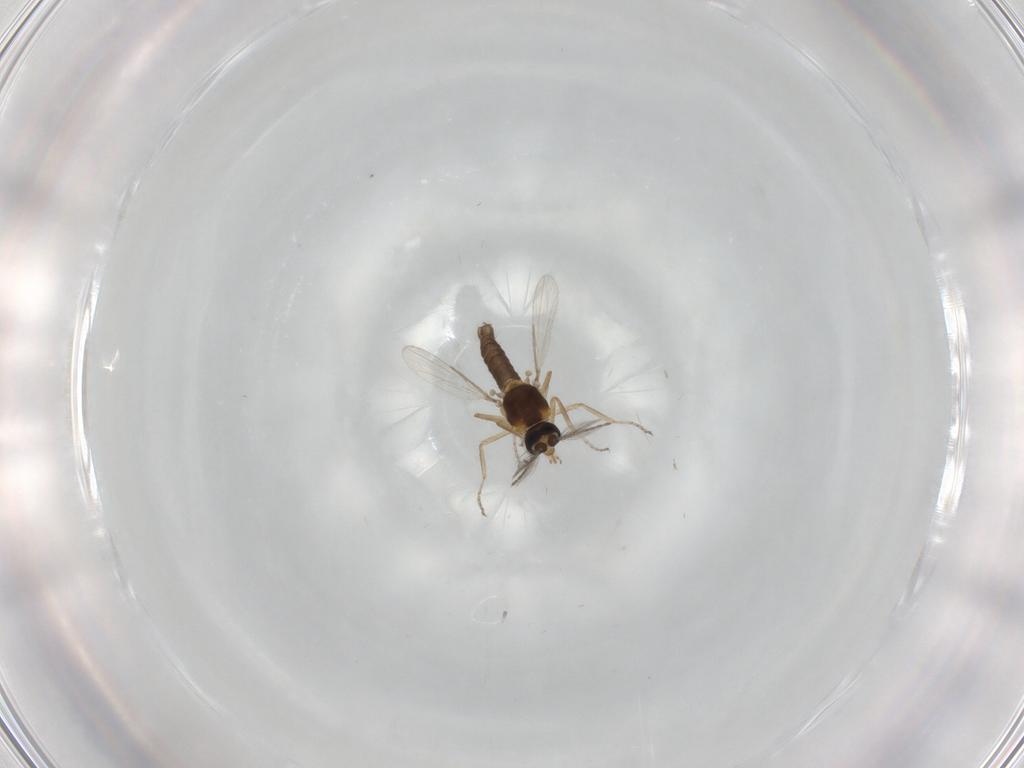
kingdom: Animalia
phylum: Arthropoda
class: Insecta
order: Diptera
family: Ceratopogonidae
